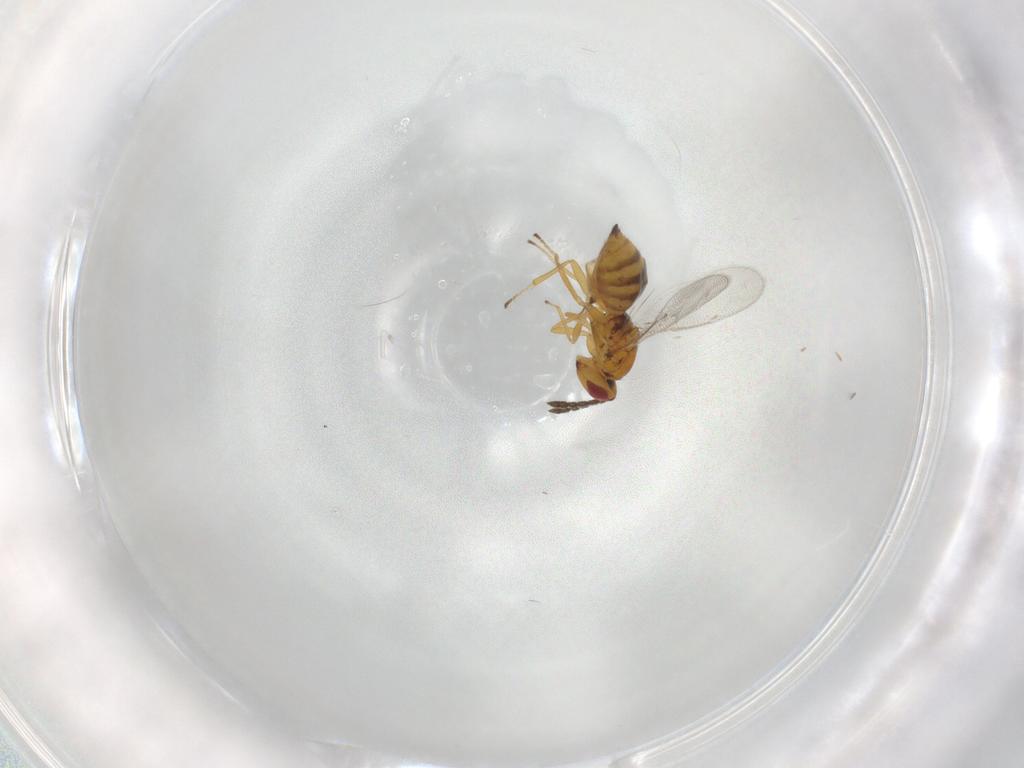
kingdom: Animalia
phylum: Arthropoda
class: Insecta
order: Hymenoptera
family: Eulophidae
